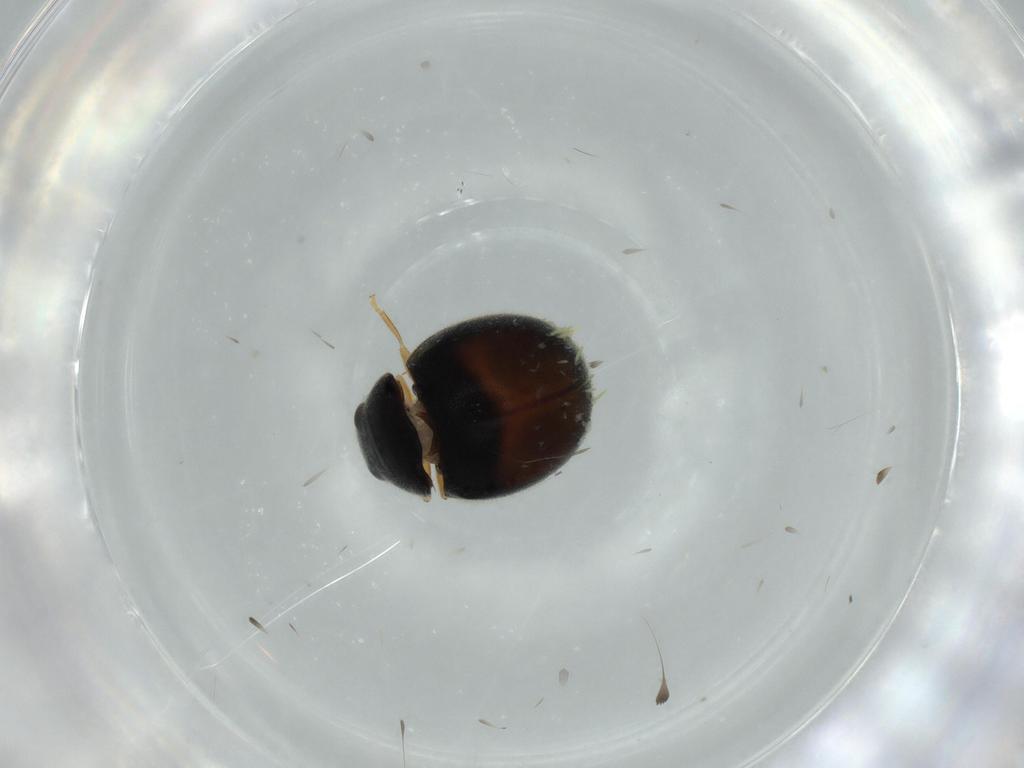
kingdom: Animalia
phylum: Arthropoda
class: Insecta
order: Coleoptera
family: Coccinellidae
